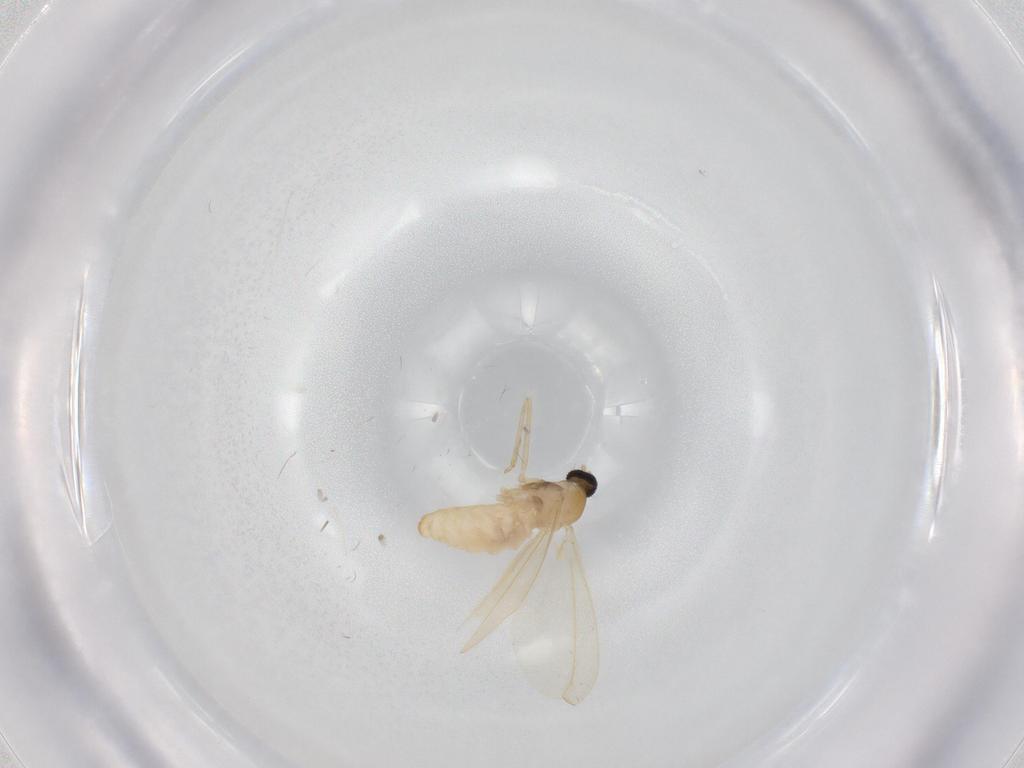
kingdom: Animalia
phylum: Arthropoda
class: Insecta
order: Diptera
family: Cecidomyiidae
